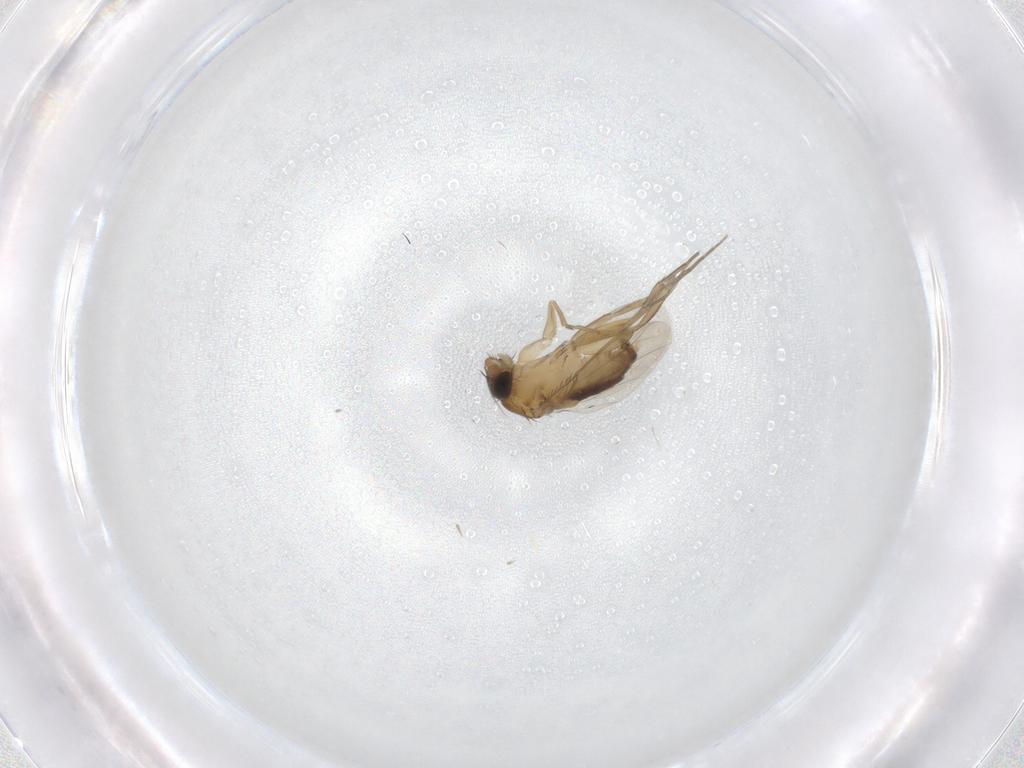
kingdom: Animalia
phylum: Arthropoda
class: Insecta
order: Diptera
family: Phoridae
